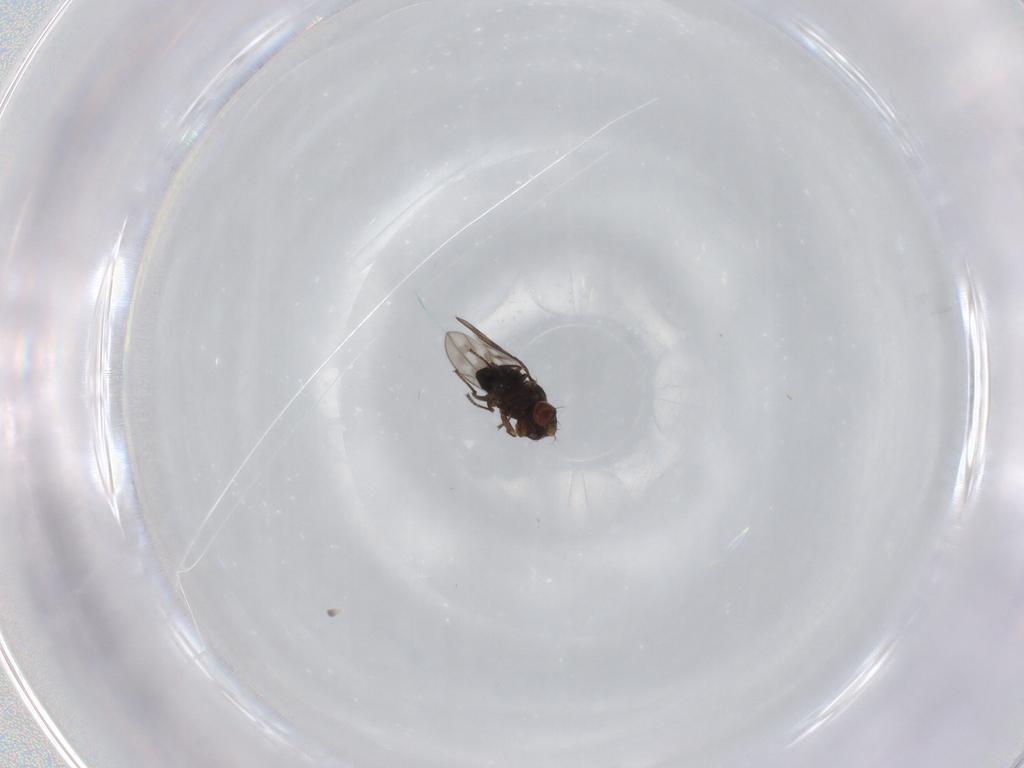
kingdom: Animalia
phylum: Arthropoda
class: Insecta
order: Diptera
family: Ephydridae
